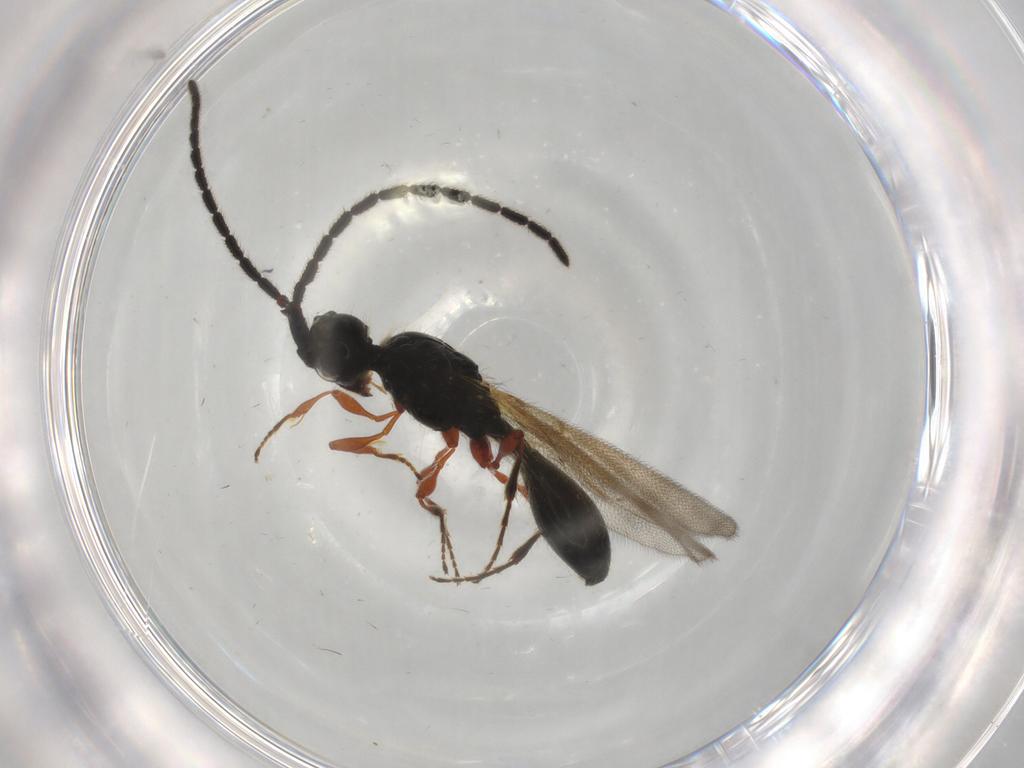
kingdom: Animalia
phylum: Arthropoda
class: Insecta
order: Hymenoptera
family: Diapriidae
